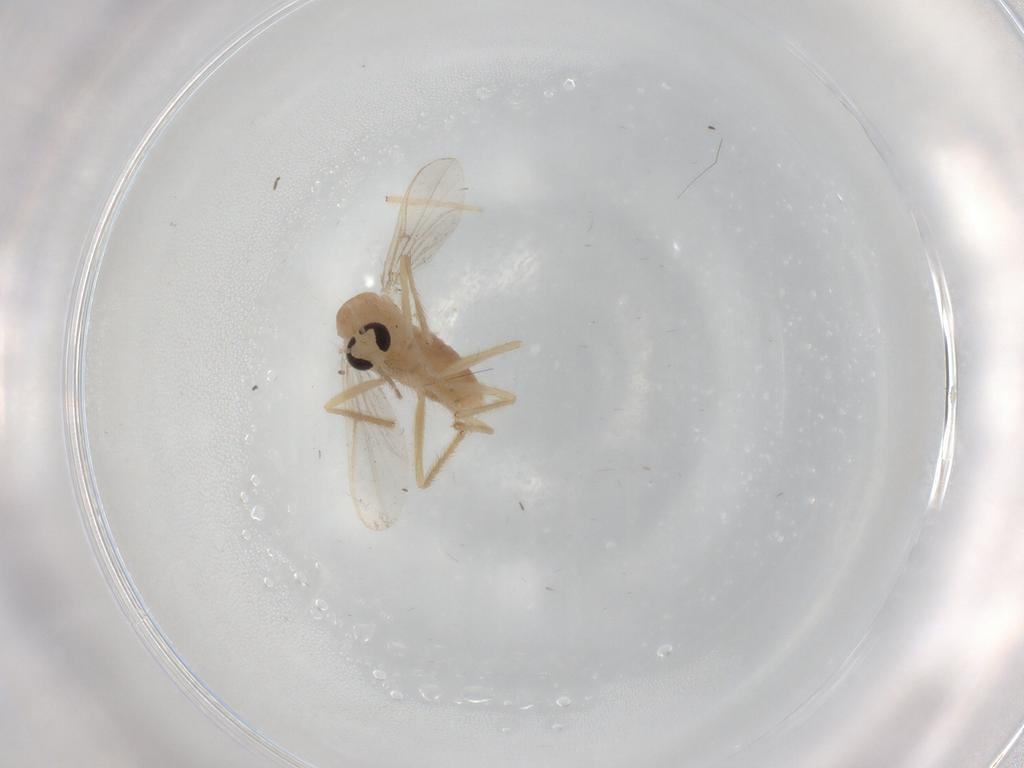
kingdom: Animalia
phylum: Arthropoda
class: Insecta
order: Diptera
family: Chironomidae
